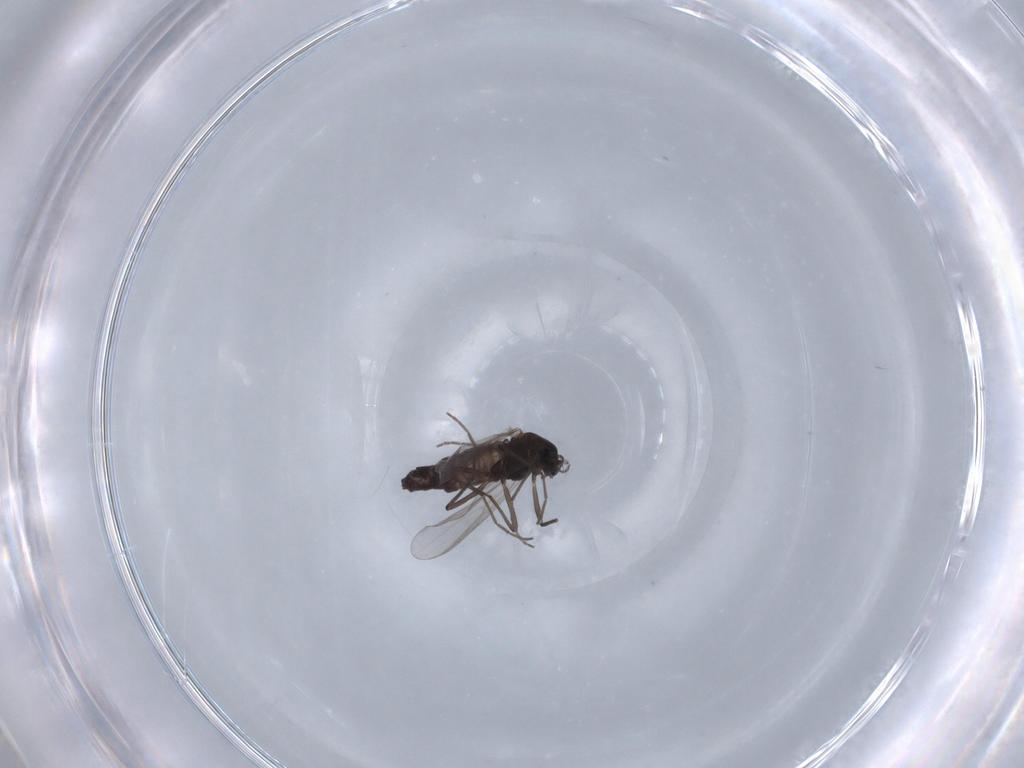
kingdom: Animalia
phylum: Arthropoda
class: Insecta
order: Diptera
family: Chironomidae
